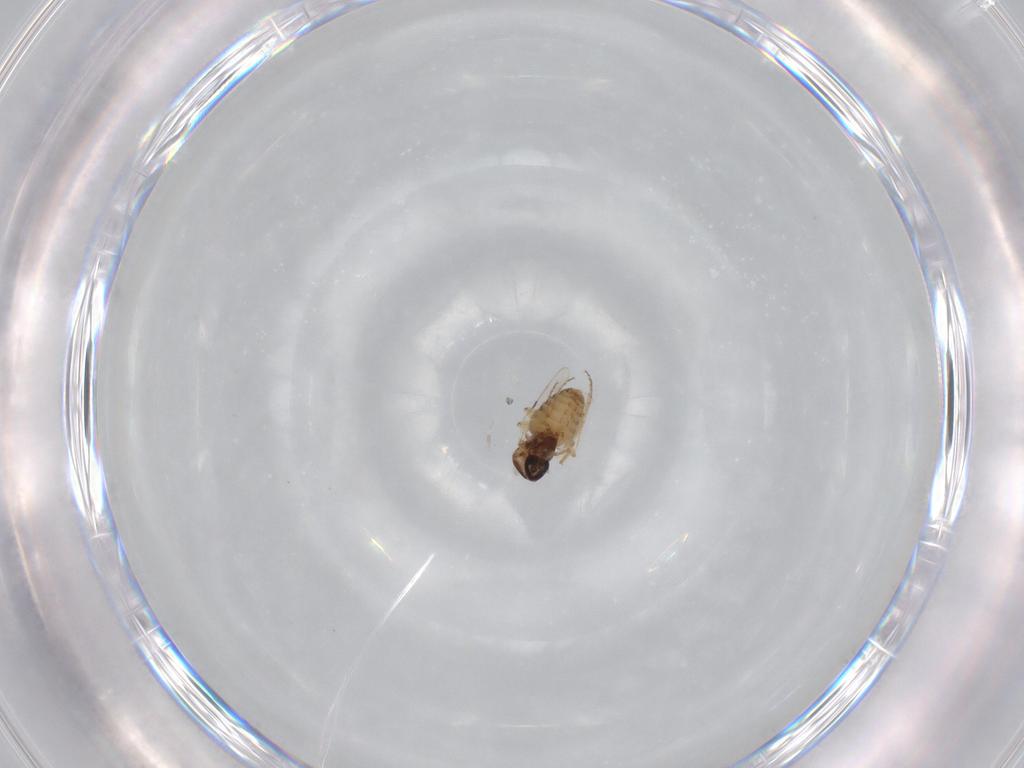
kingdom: Animalia
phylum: Arthropoda
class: Insecta
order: Diptera
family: Ceratopogonidae
